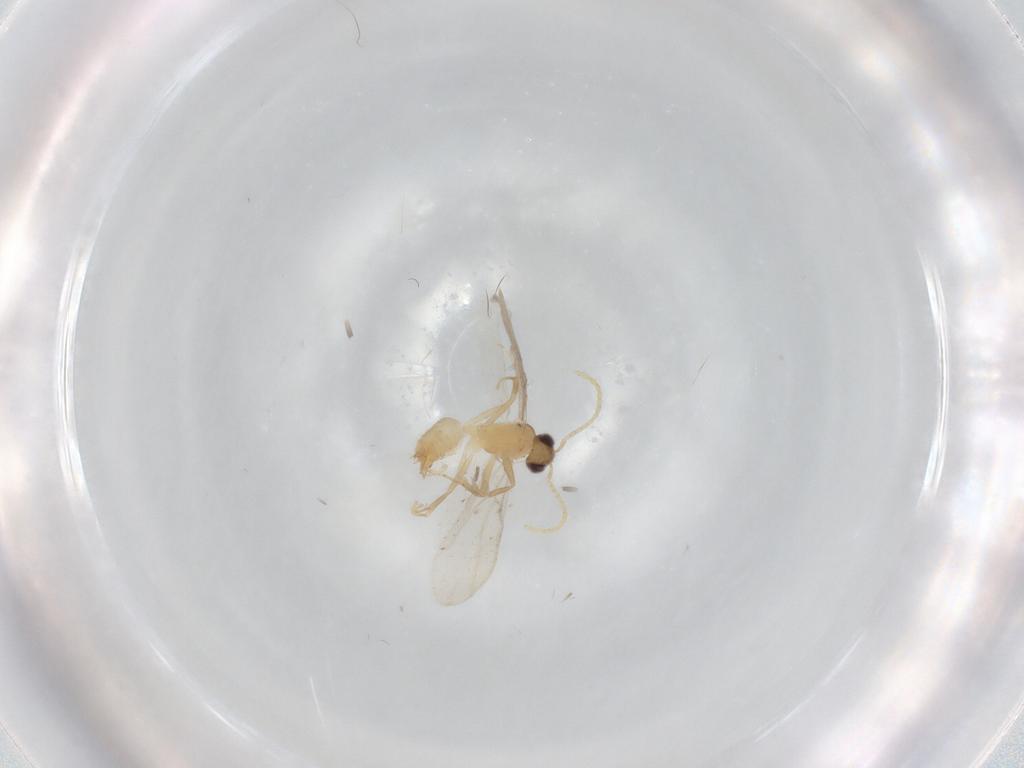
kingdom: Animalia
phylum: Arthropoda
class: Insecta
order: Hymenoptera
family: Formicidae
